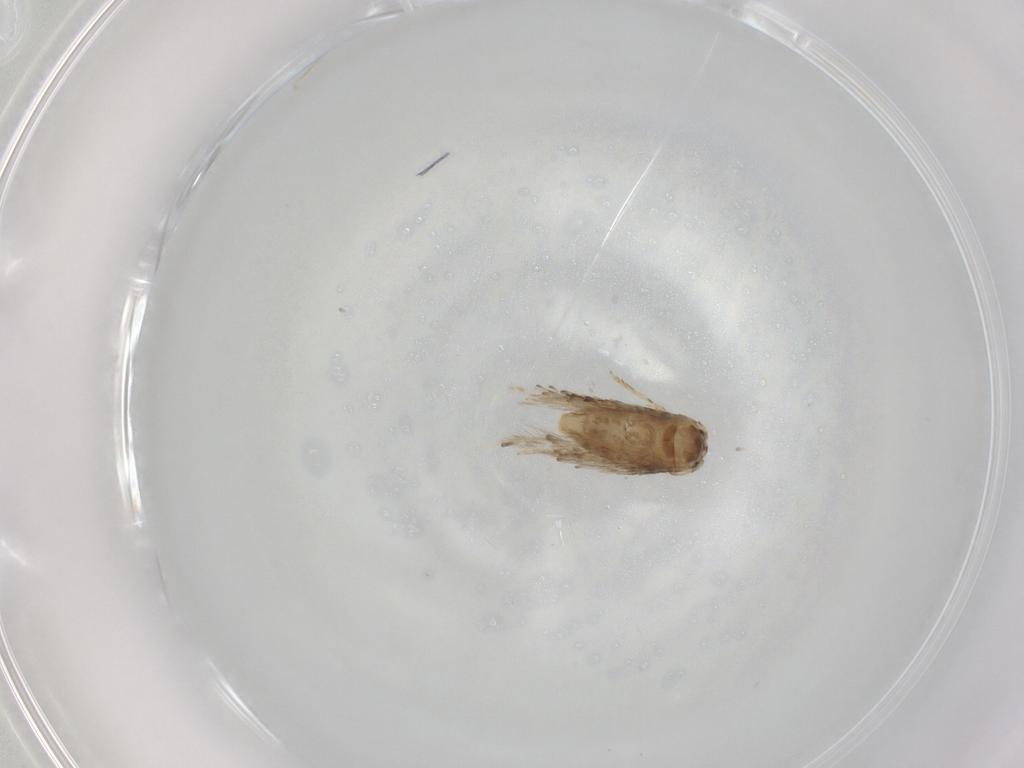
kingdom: Animalia
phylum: Arthropoda
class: Insecta
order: Lepidoptera
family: Nepticulidae
